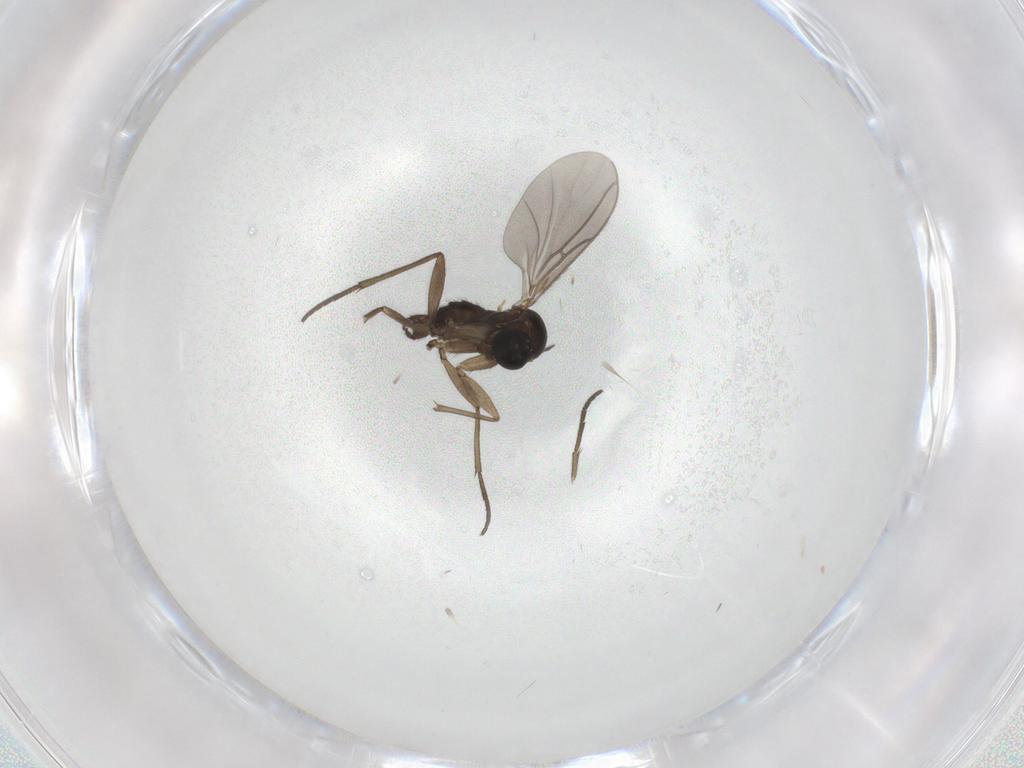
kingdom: Animalia
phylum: Arthropoda
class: Insecta
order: Diptera
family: Sciaridae
